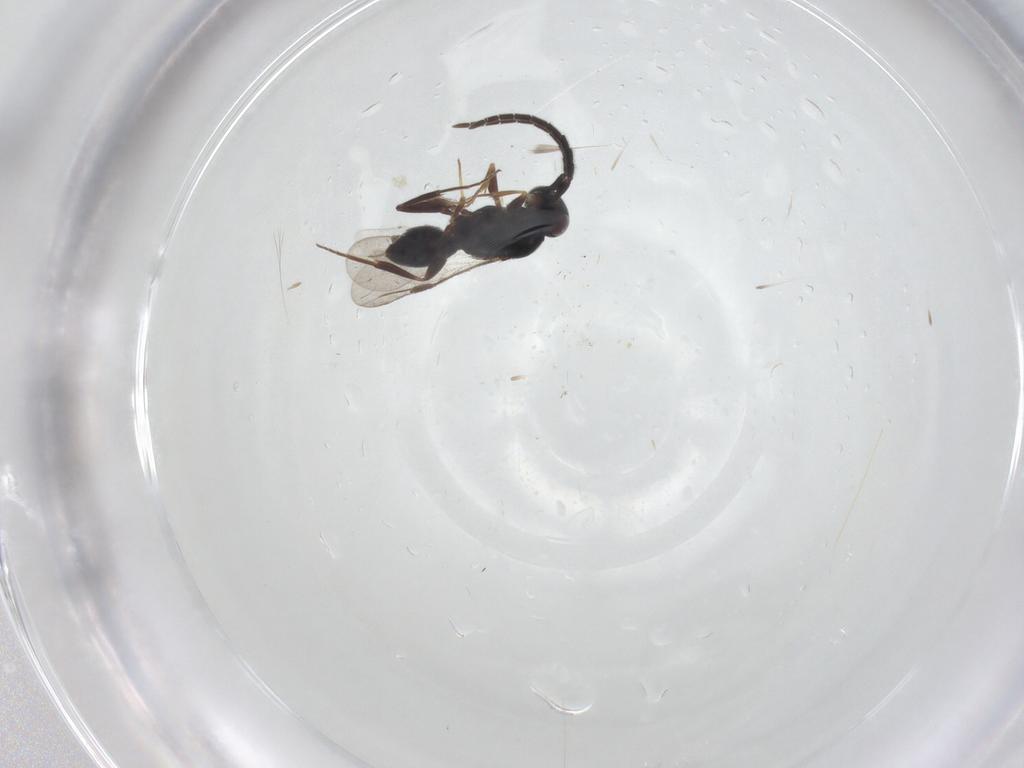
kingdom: Animalia
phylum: Arthropoda
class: Insecta
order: Hymenoptera
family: Megaspilidae
